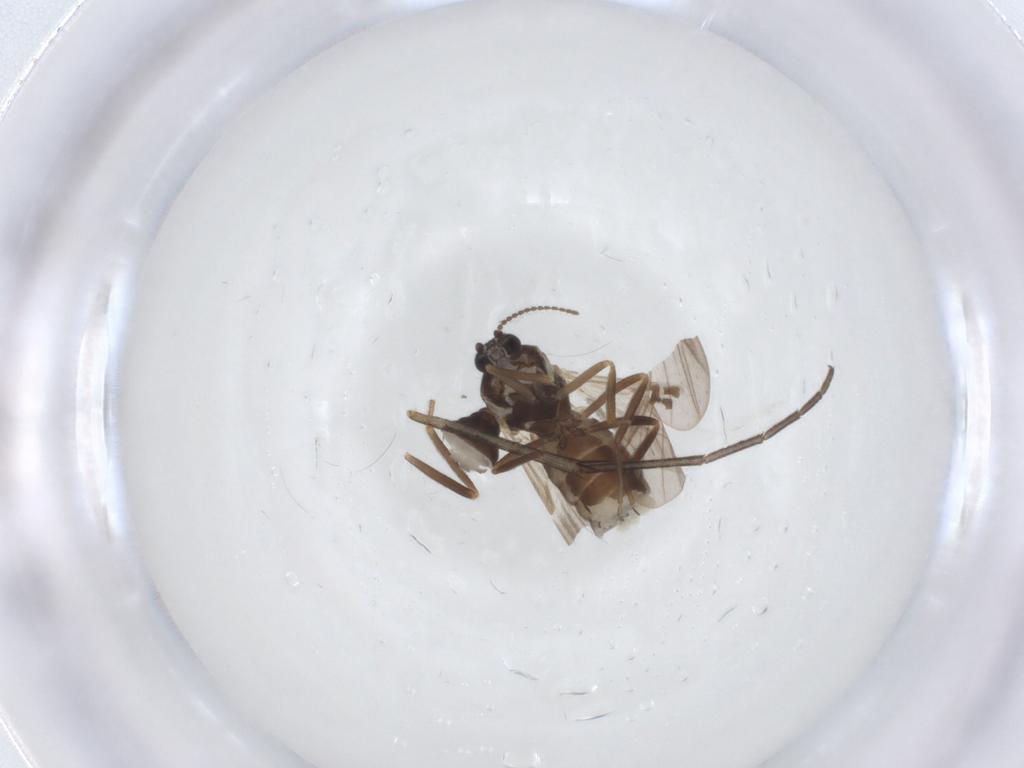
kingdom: Animalia
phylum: Arthropoda
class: Insecta
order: Diptera
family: Ceratopogonidae
